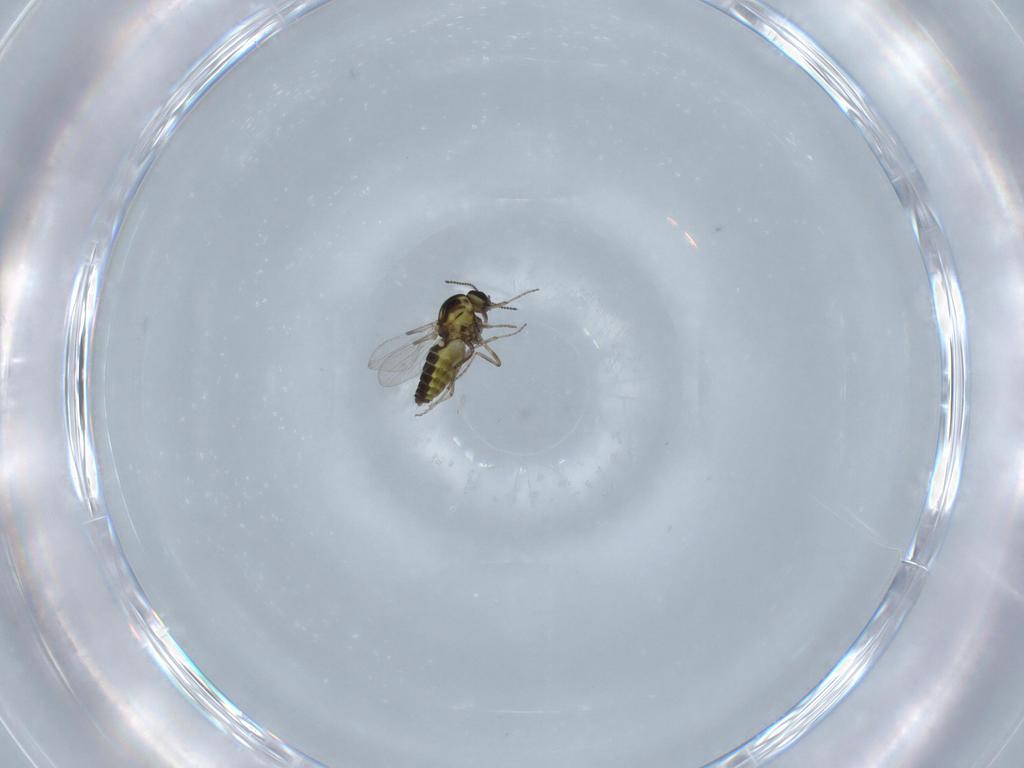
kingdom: Animalia
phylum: Arthropoda
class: Insecta
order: Diptera
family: Ceratopogonidae
